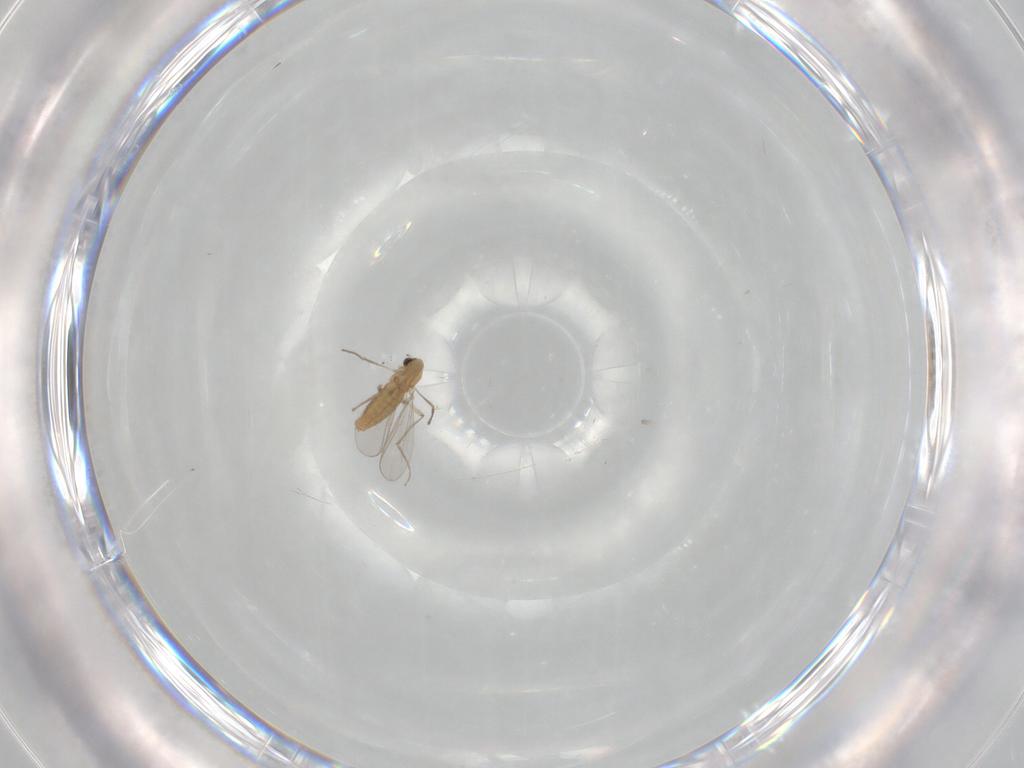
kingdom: Animalia
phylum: Arthropoda
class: Insecta
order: Diptera
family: Chironomidae
